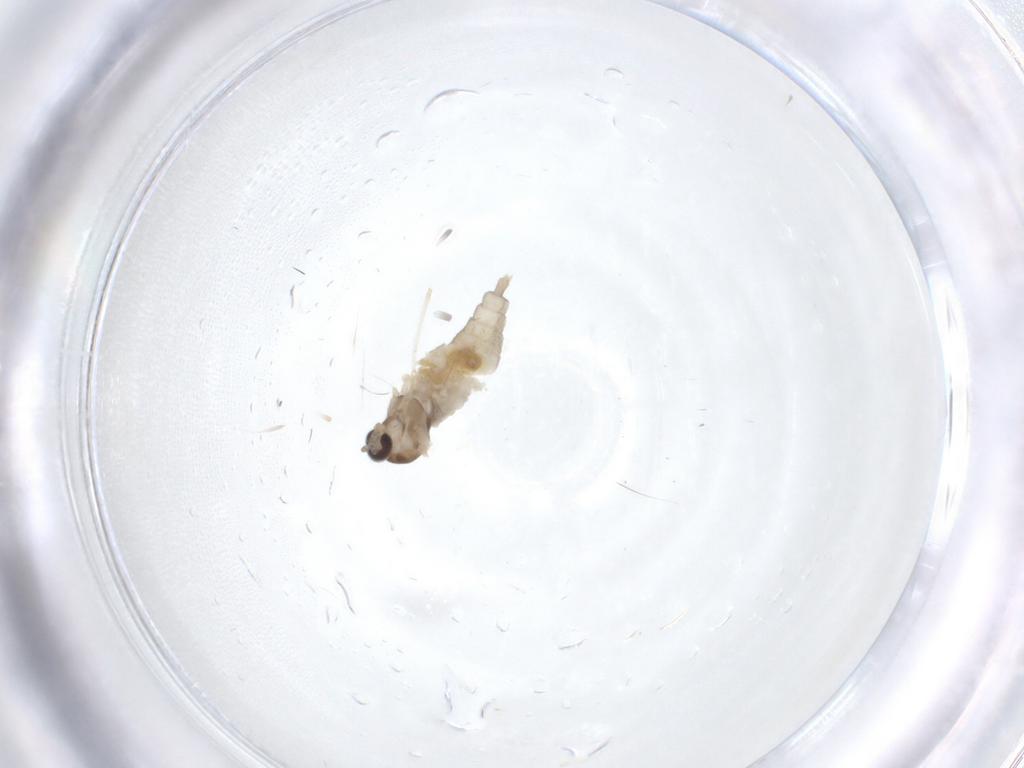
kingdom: Animalia
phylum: Arthropoda
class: Insecta
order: Diptera
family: Cecidomyiidae
